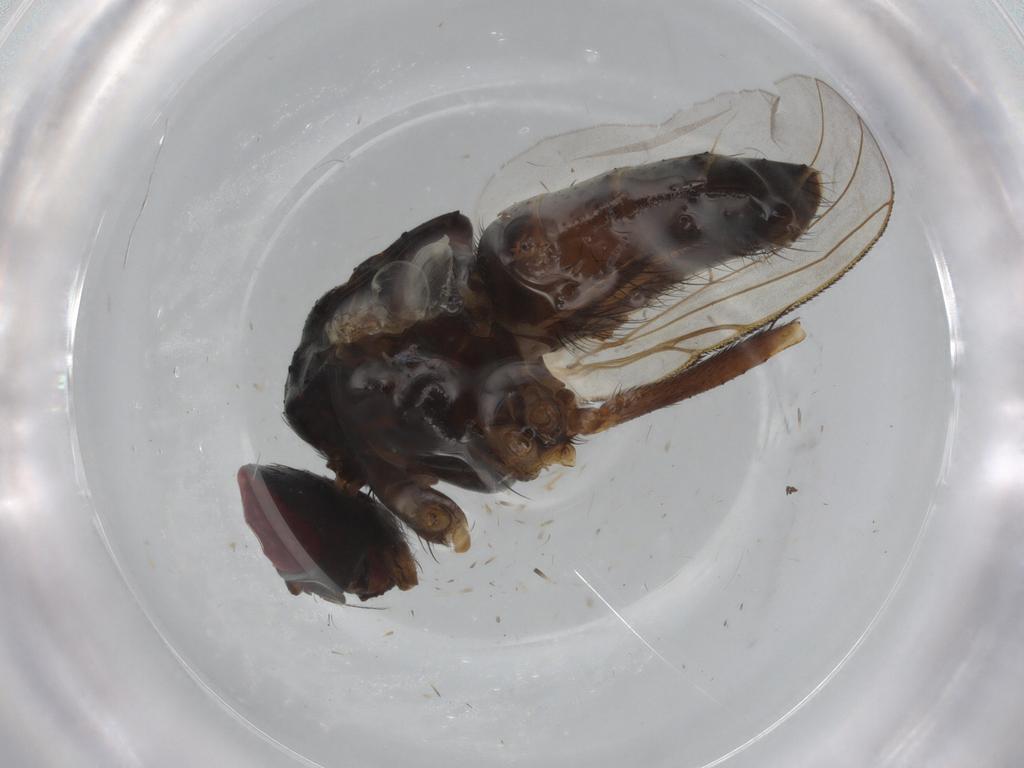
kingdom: Animalia
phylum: Arthropoda
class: Insecta
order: Diptera
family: Muscidae
